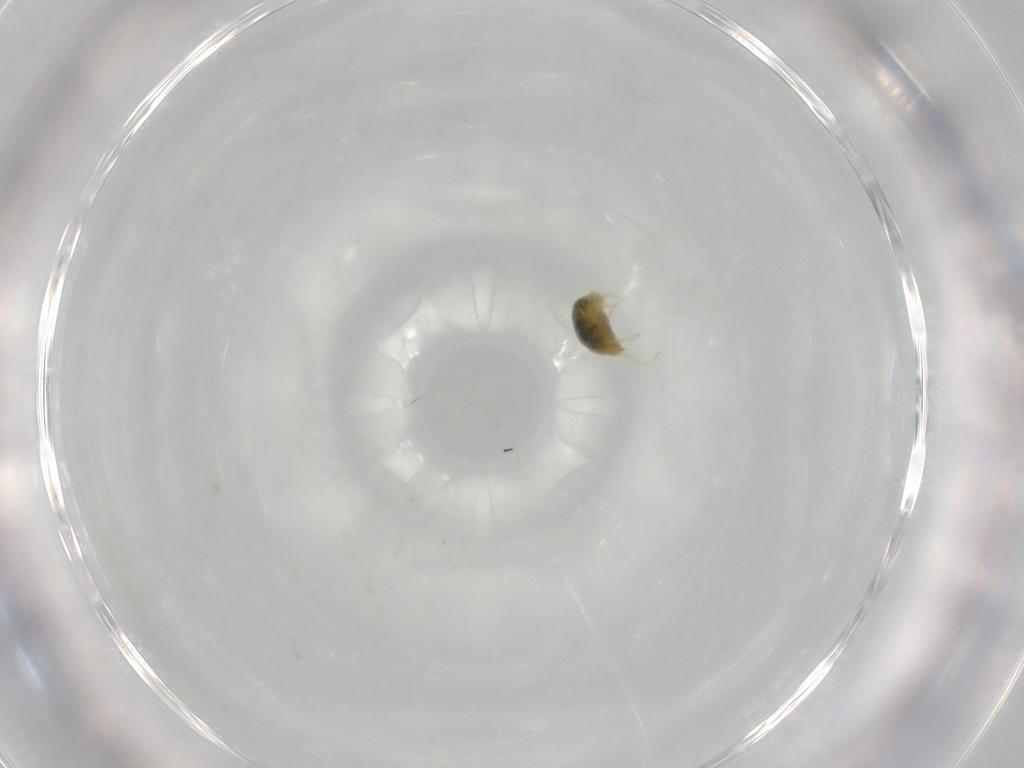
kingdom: Animalia
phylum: Arthropoda
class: Arachnida
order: Trombidiformes
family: Tetranychidae
